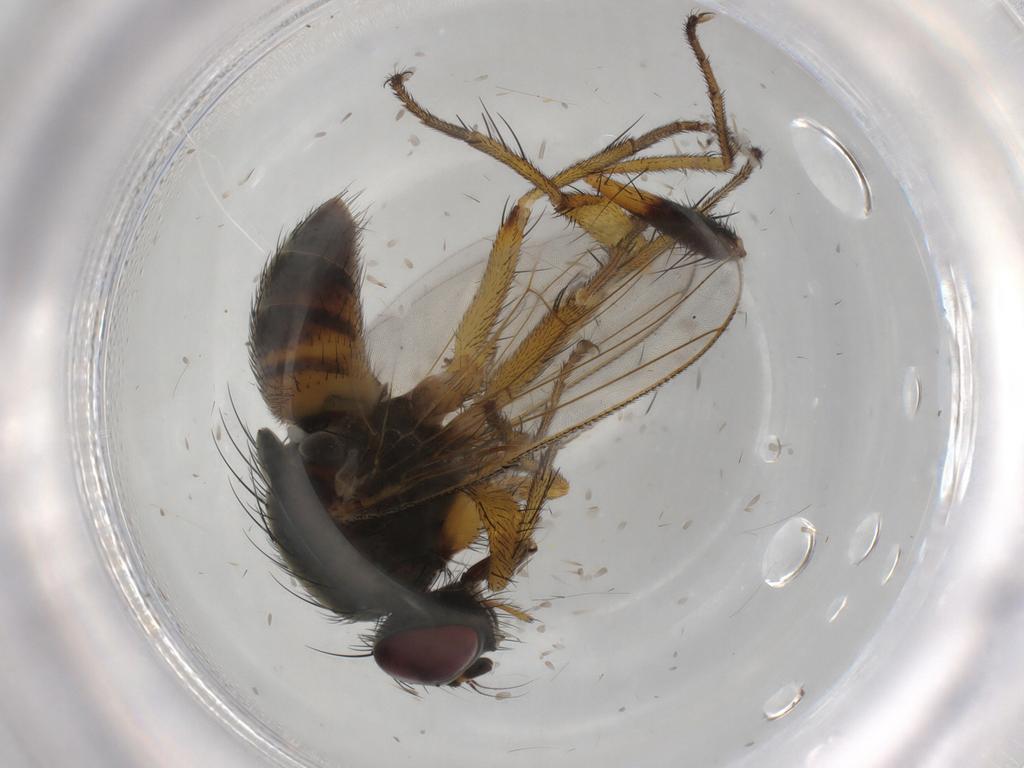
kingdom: Animalia
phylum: Arthropoda
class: Insecta
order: Diptera
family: Muscidae
